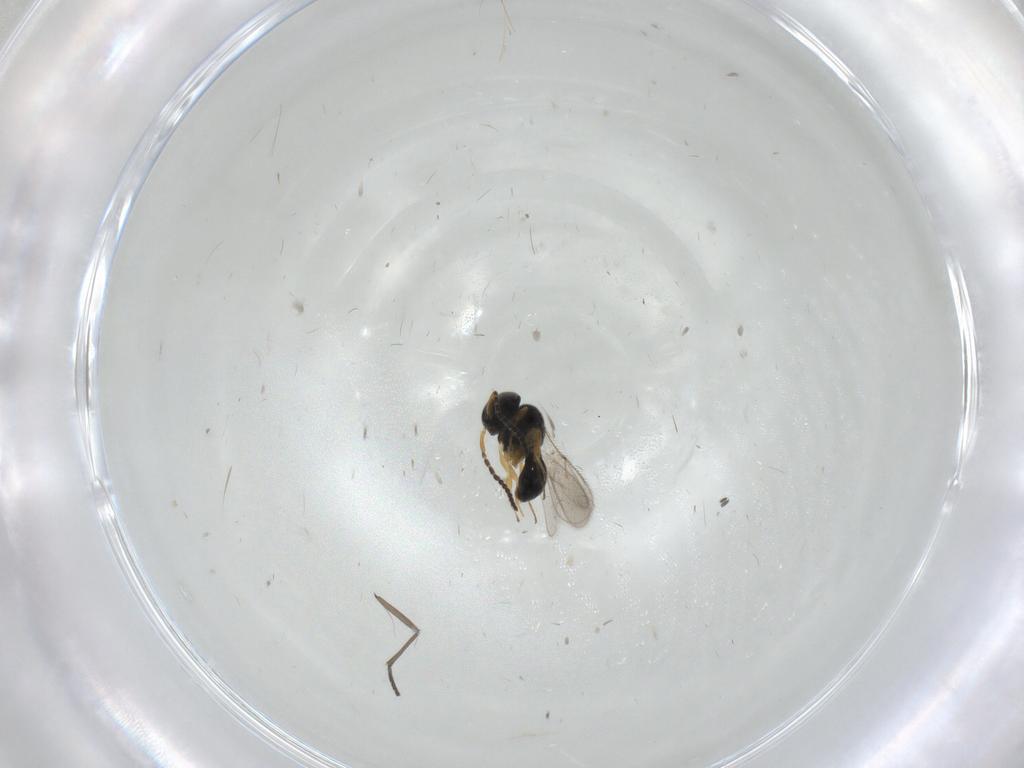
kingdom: Animalia
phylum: Arthropoda
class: Insecta
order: Hymenoptera
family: Scelionidae
